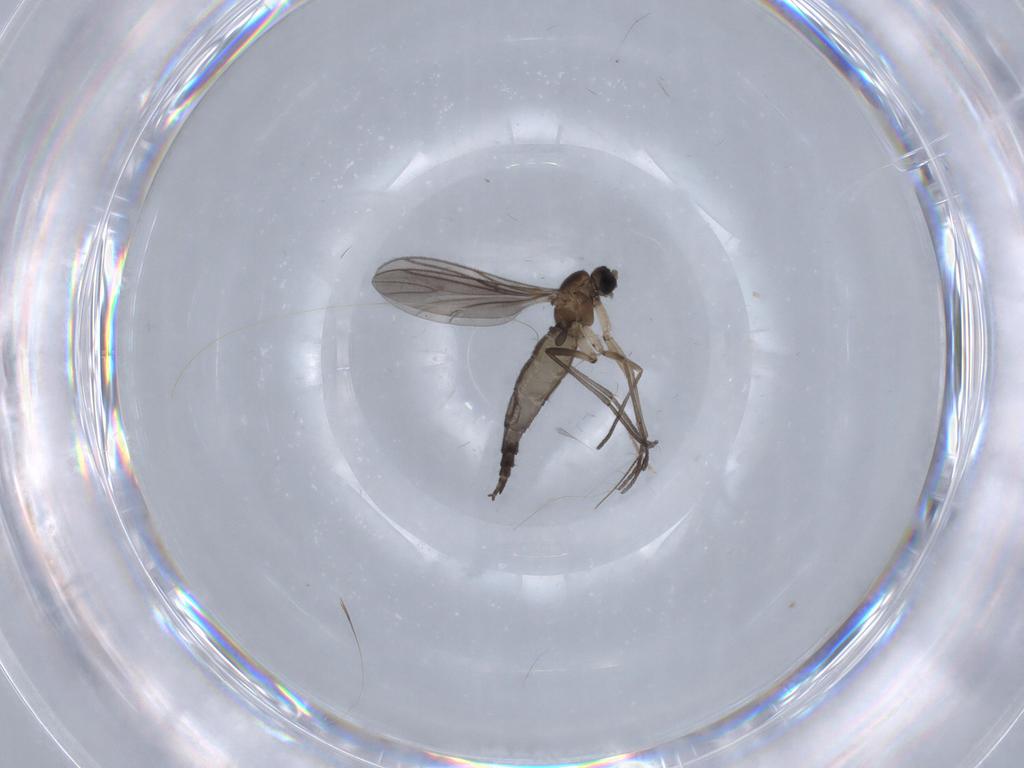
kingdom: Animalia
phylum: Arthropoda
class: Insecta
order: Diptera
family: Sciaridae
